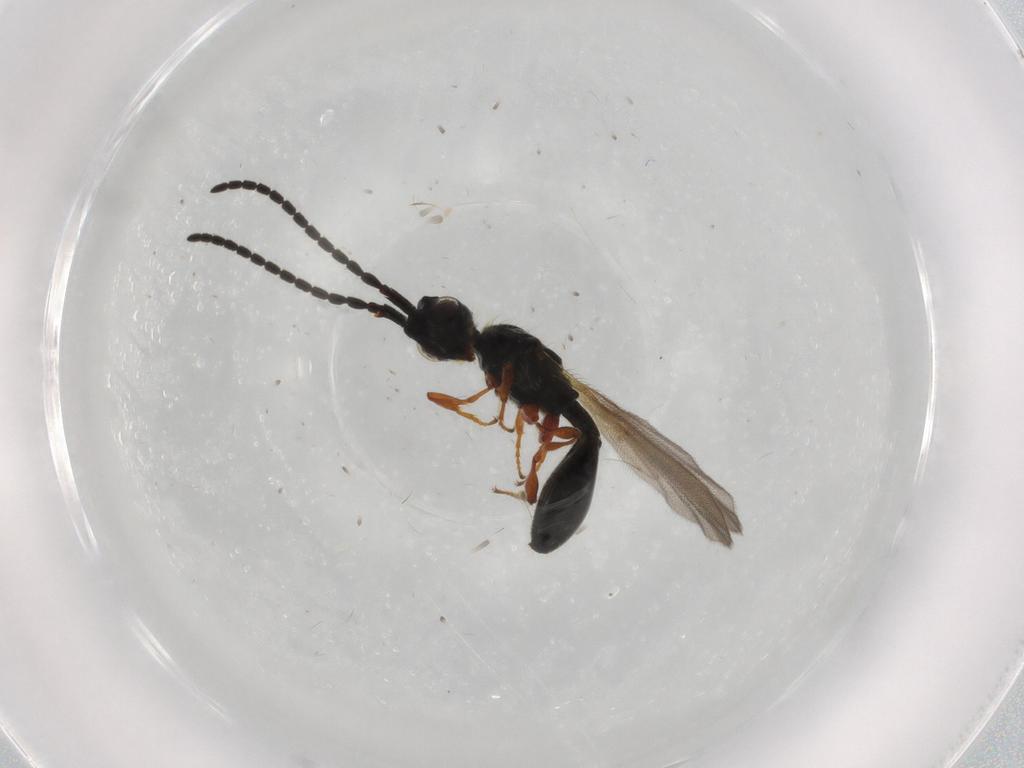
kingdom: Animalia
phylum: Arthropoda
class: Insecta
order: Hymenoptera
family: Diapriidae
